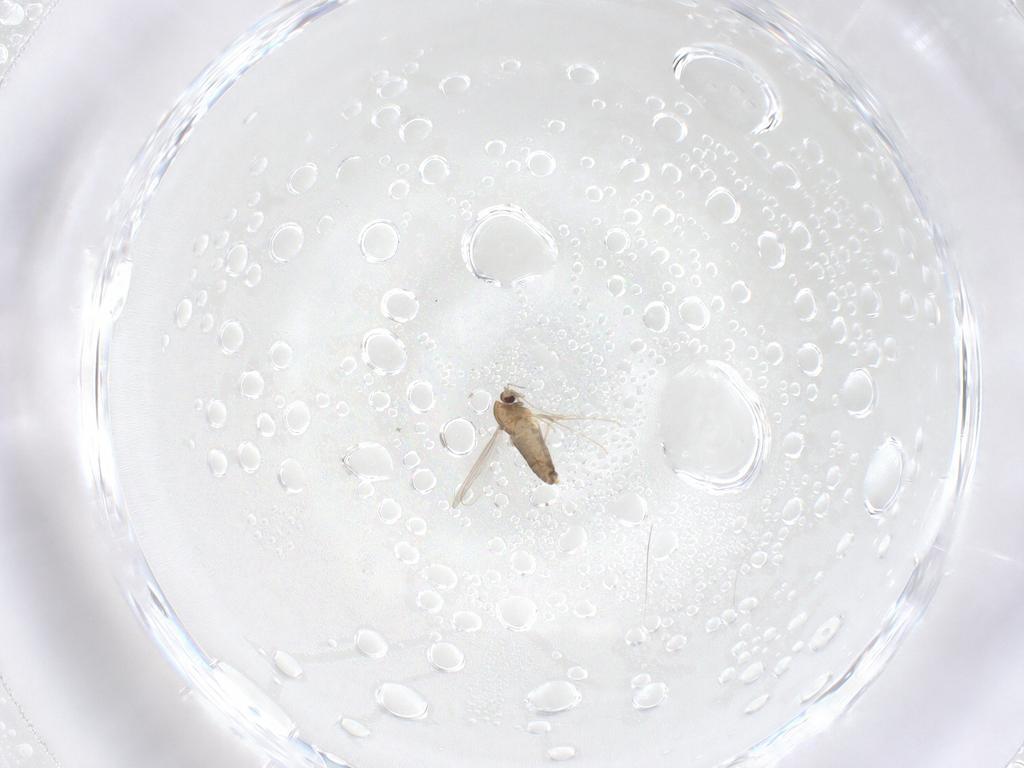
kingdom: Animalia
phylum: Arthropoda
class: Insecta
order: Diptera
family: Chironomidae
